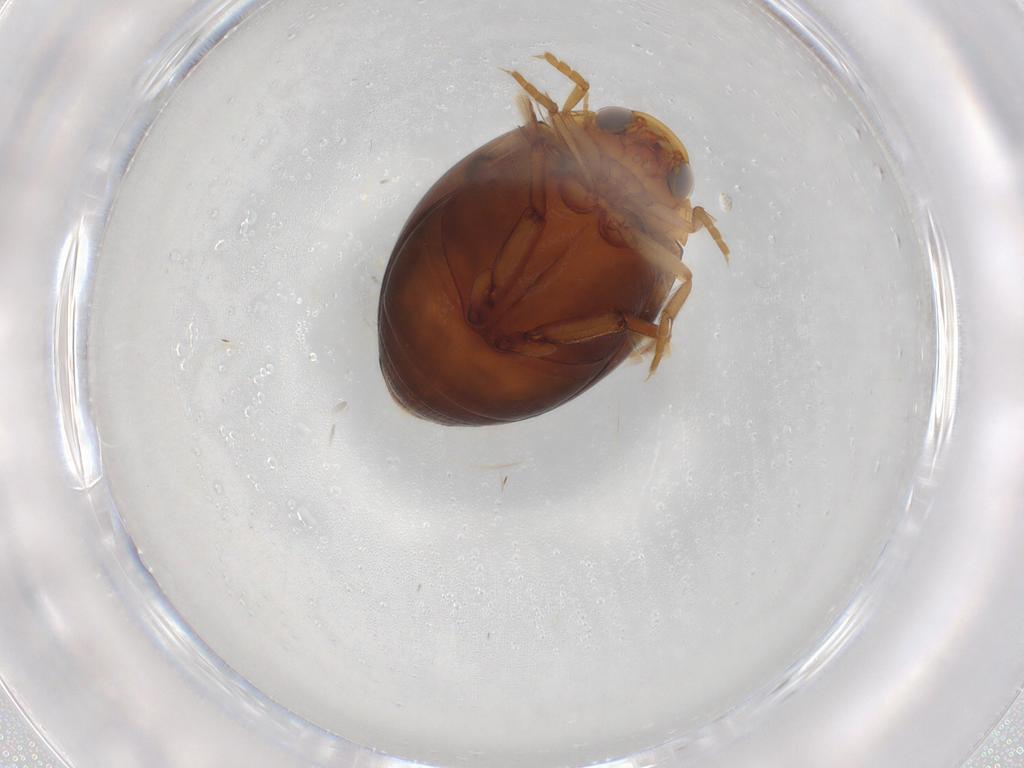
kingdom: Animalia
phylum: Arthropoda
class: Insecta
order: Coleoptera
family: Dytiscidae
